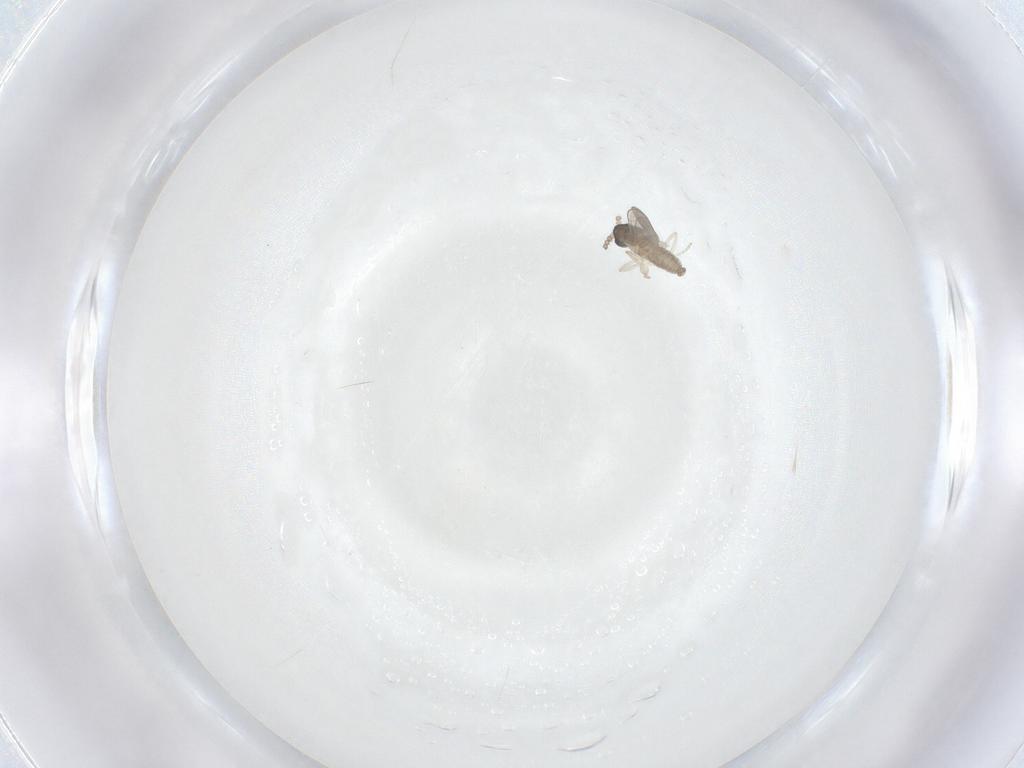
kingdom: Animalia
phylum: Arthropoda
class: Insecta
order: Diptera
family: Cecidomyiidae
